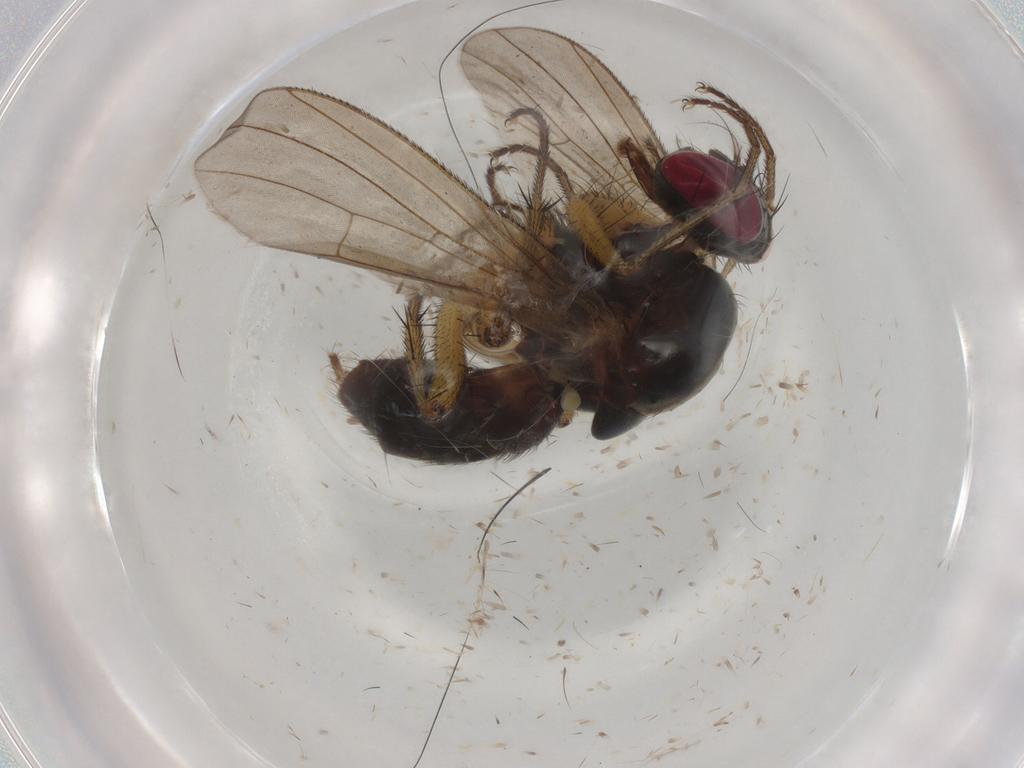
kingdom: Animalia
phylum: Arthropoda
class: Insecta
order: Diptera
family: Muscidae
